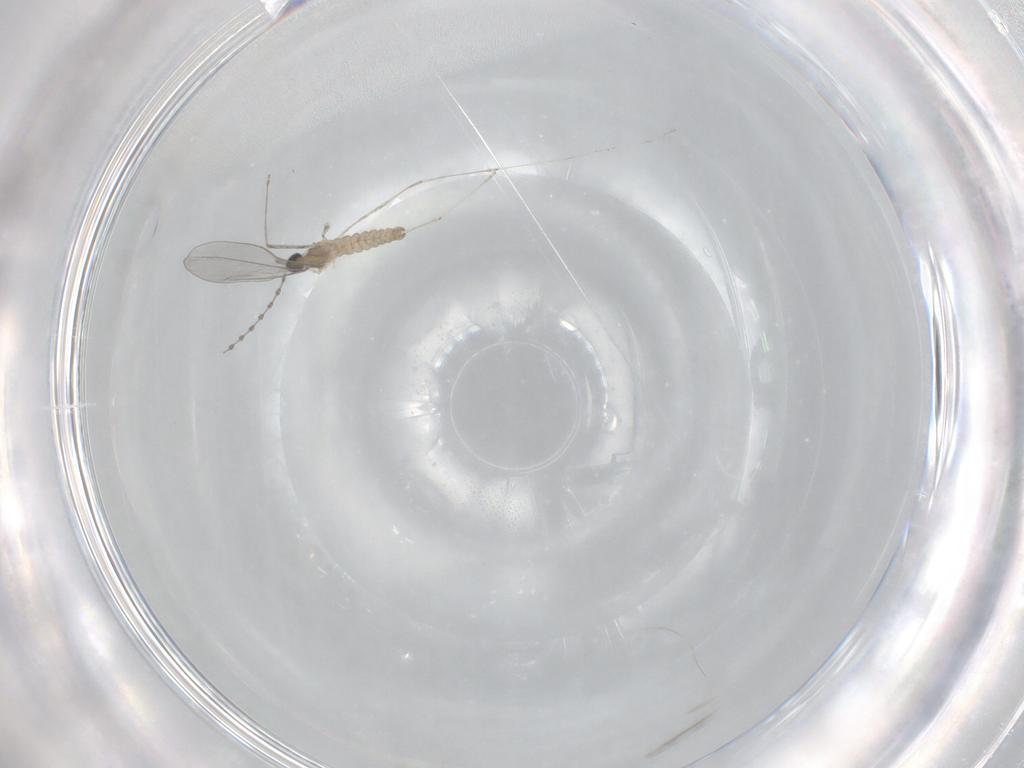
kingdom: Animalia
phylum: Arthropoda
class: Insecta
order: Diptera
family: Cecidomyiidae
